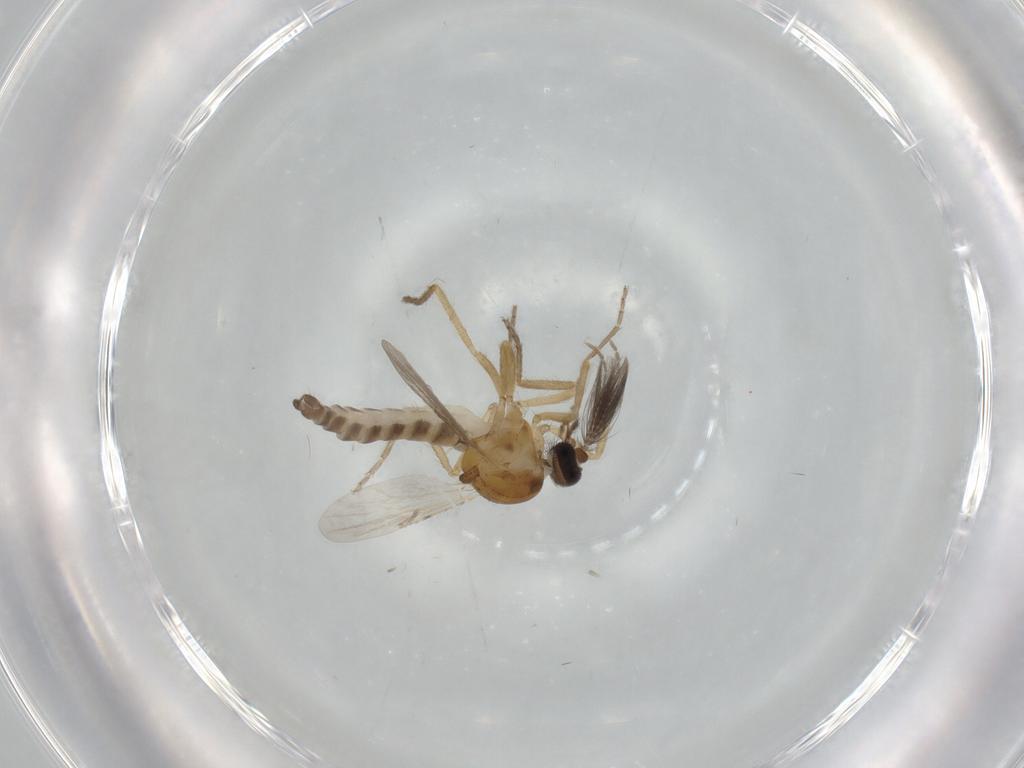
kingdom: Animalia
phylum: Arthropoda
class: Insecta
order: Diptera
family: Ceratopogonidae
